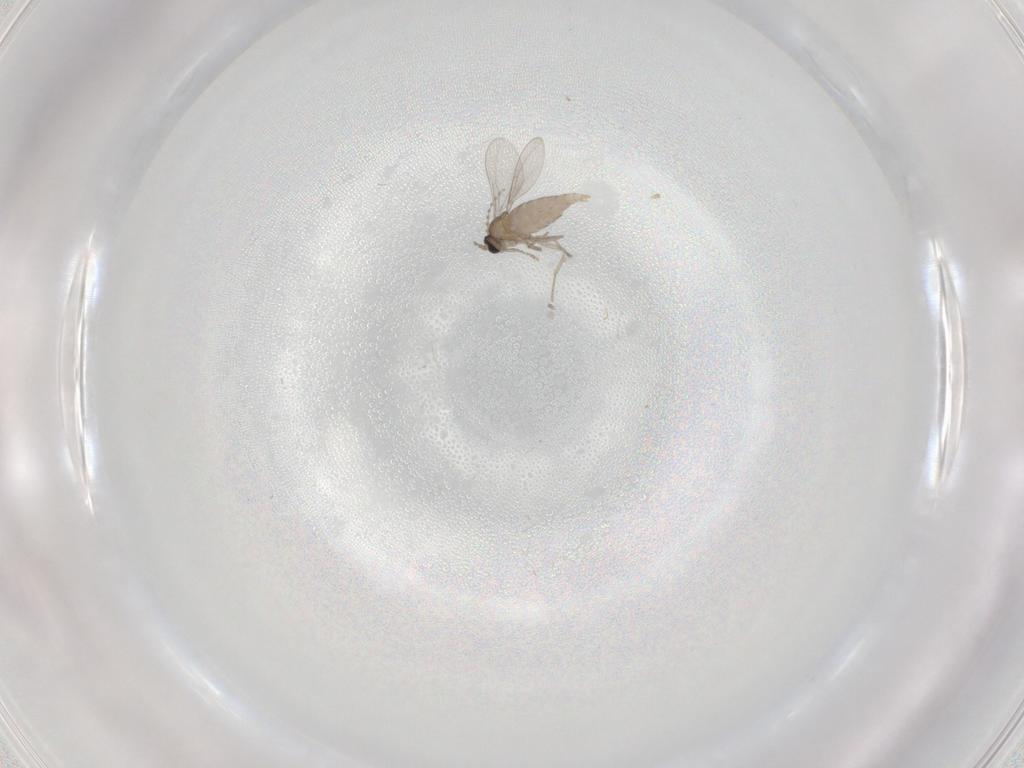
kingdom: Animalia
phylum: Arthropoda
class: Insecta
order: Diptera
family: Cecidomyiidae
